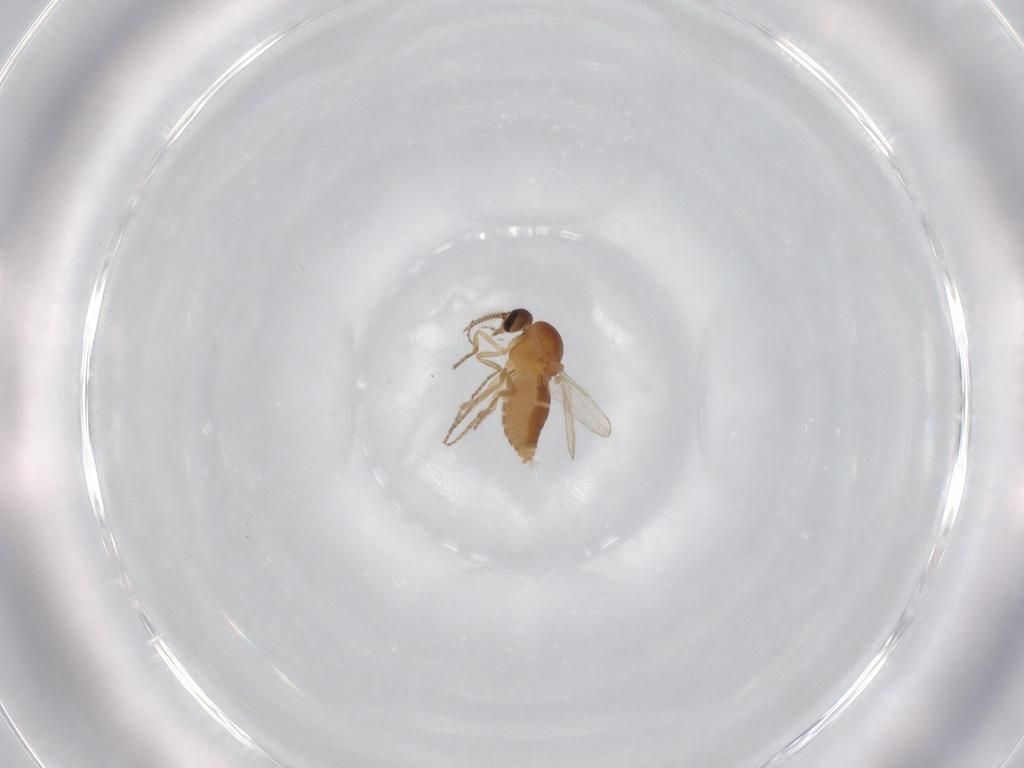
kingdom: Animalia
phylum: Arthropoda
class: Insecta
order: Diptera
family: Ceratopogonidae
